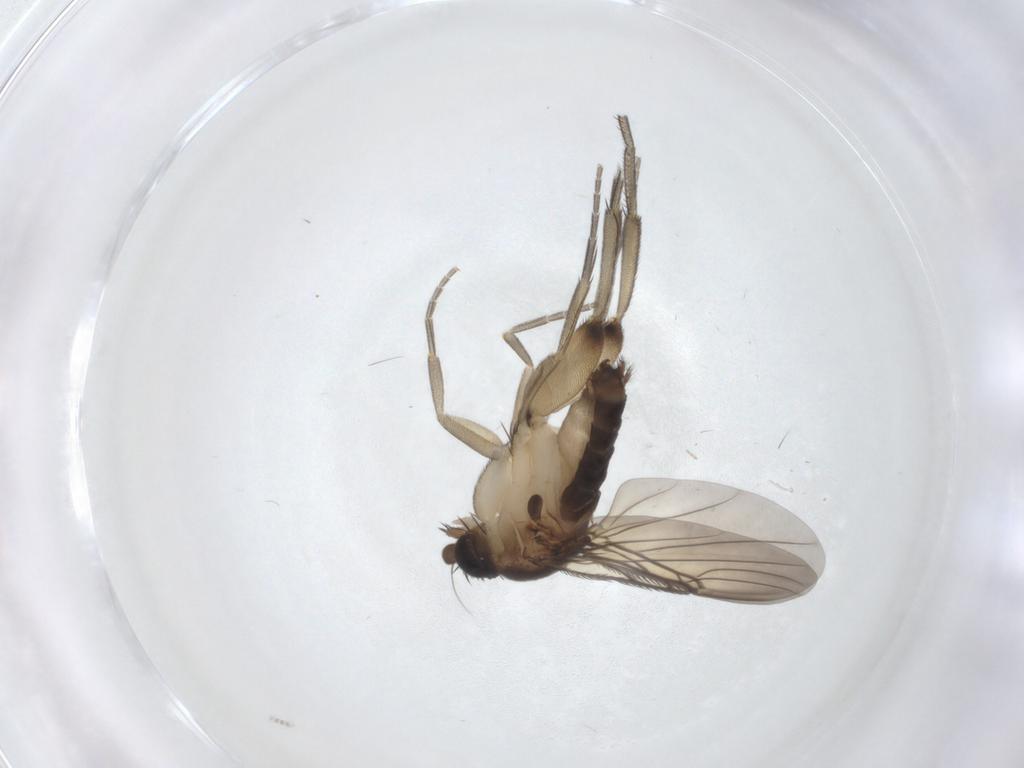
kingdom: Animalia
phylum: Arthropoda
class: Insecta
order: Diptera
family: Phoridae
